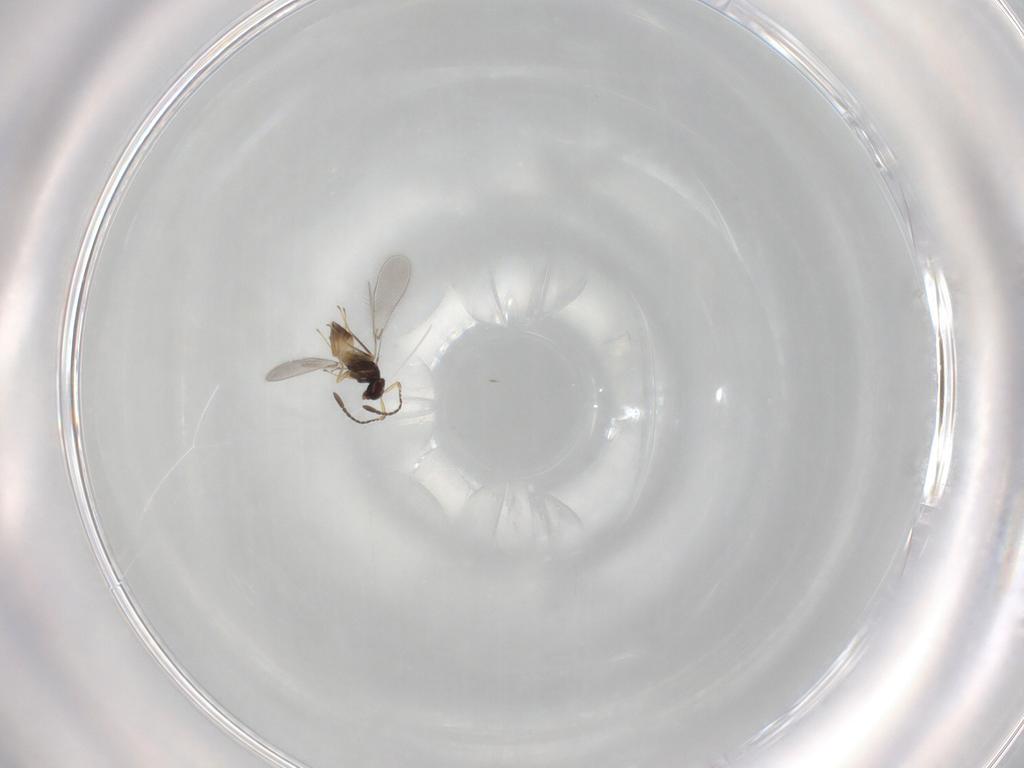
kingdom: Animalia
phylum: Arthropoda
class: Insecta
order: Hymenoptera
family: Mymaridae
